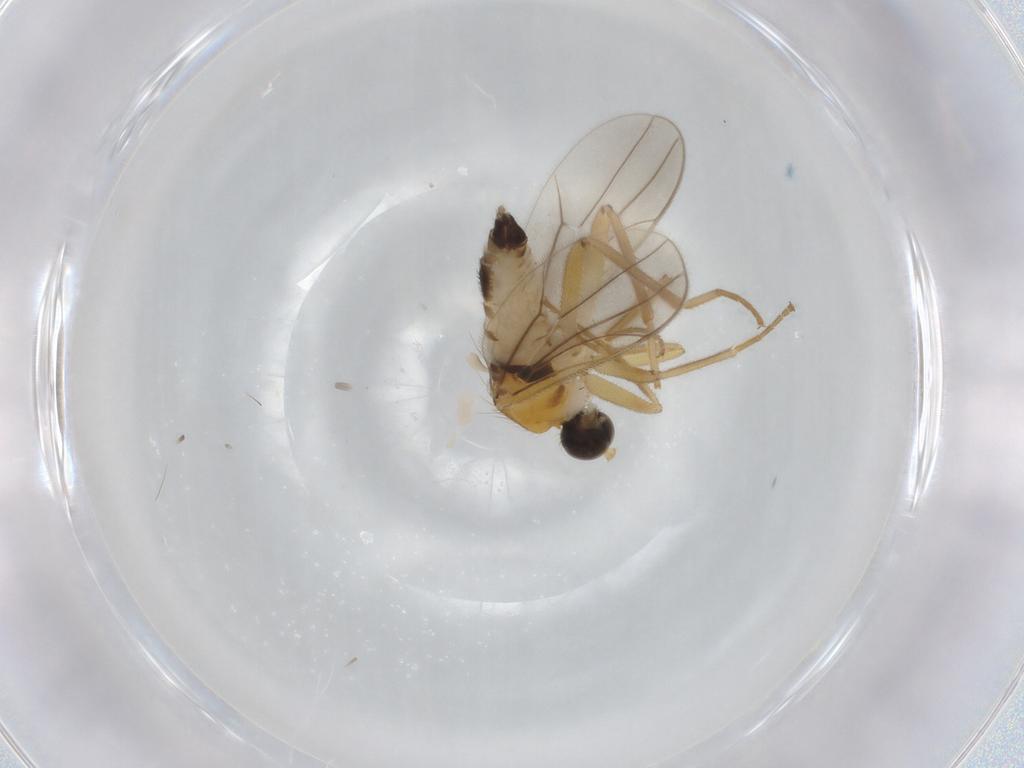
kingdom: Animalia
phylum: Arthropoda
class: Insecta
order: Diptera
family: Hybotidae
